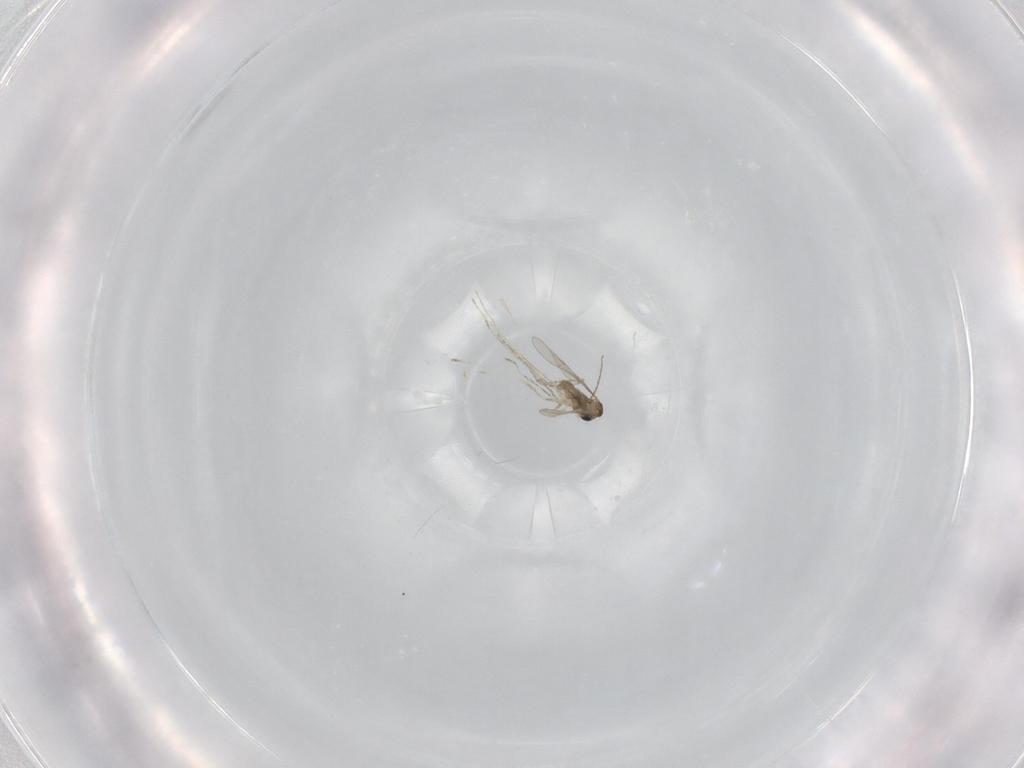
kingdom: Animalia
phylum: Arthropoda
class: Insecta
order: Diptera
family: Cecidomyiidae
